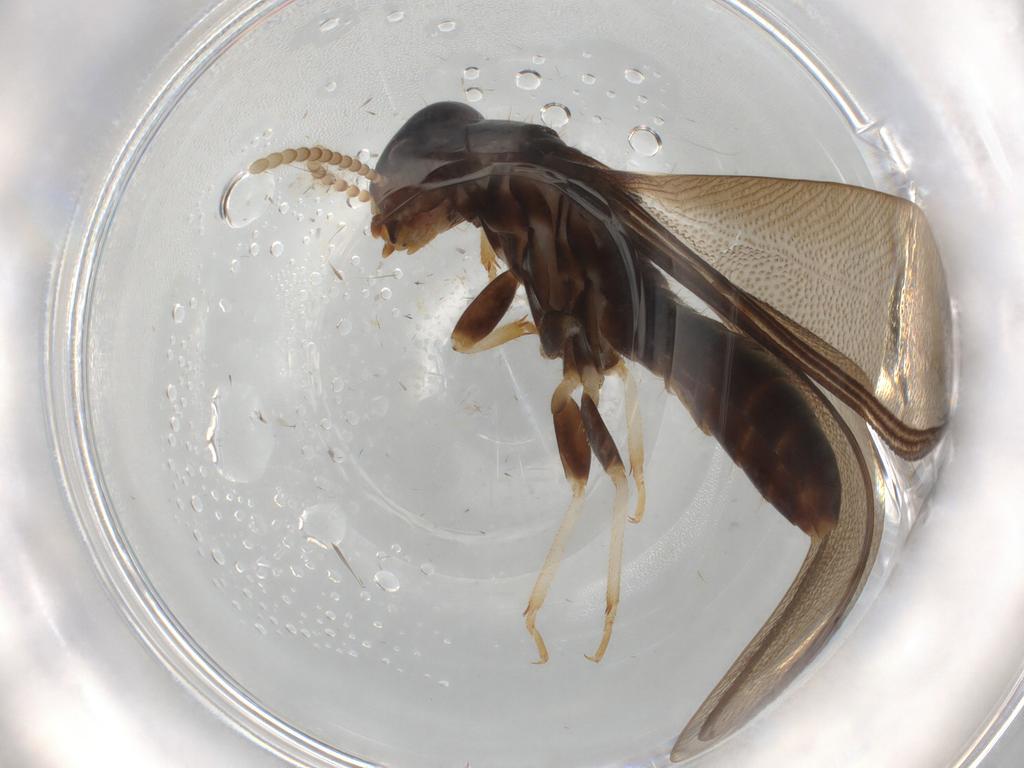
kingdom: Animalia
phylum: Arthropoda
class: Insecta
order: Blattodea
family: Kalotermitidae
